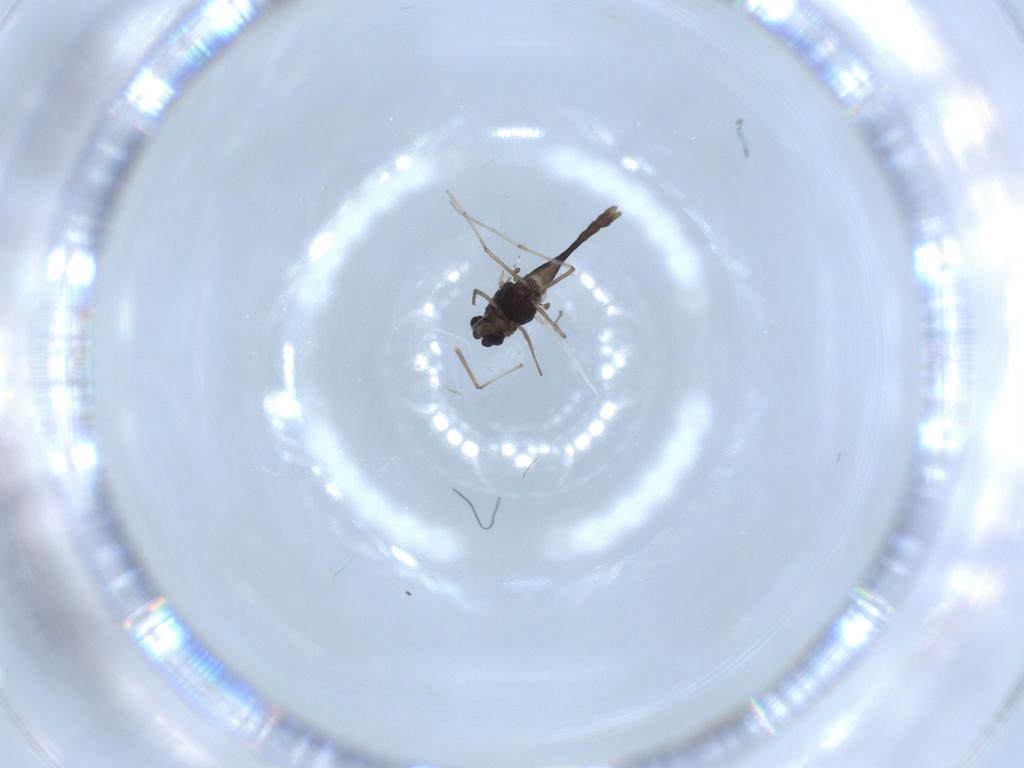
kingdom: Animalia
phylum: Arthropoda
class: Insecta
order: Diptera
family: Chironomidae
